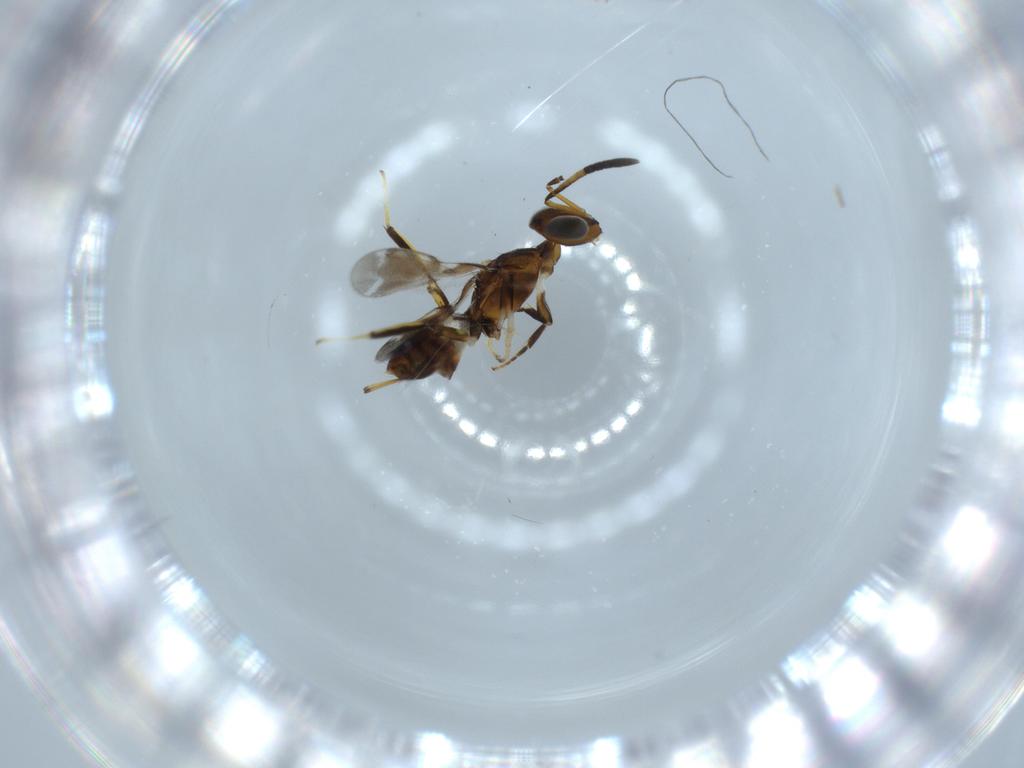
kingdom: Animalia
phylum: Arthropoda
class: Insecta
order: Hymenoptera
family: Eupelmidae
